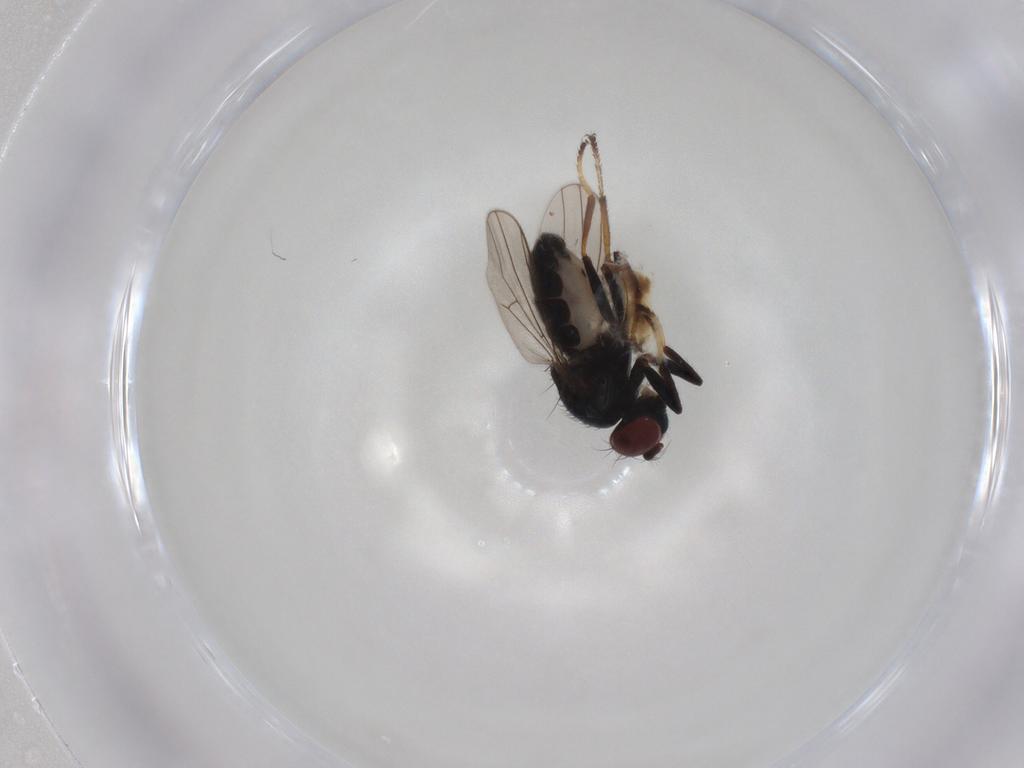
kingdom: Animalia
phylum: Arthropoda
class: Insecta
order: Diptera
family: Ephydridae
